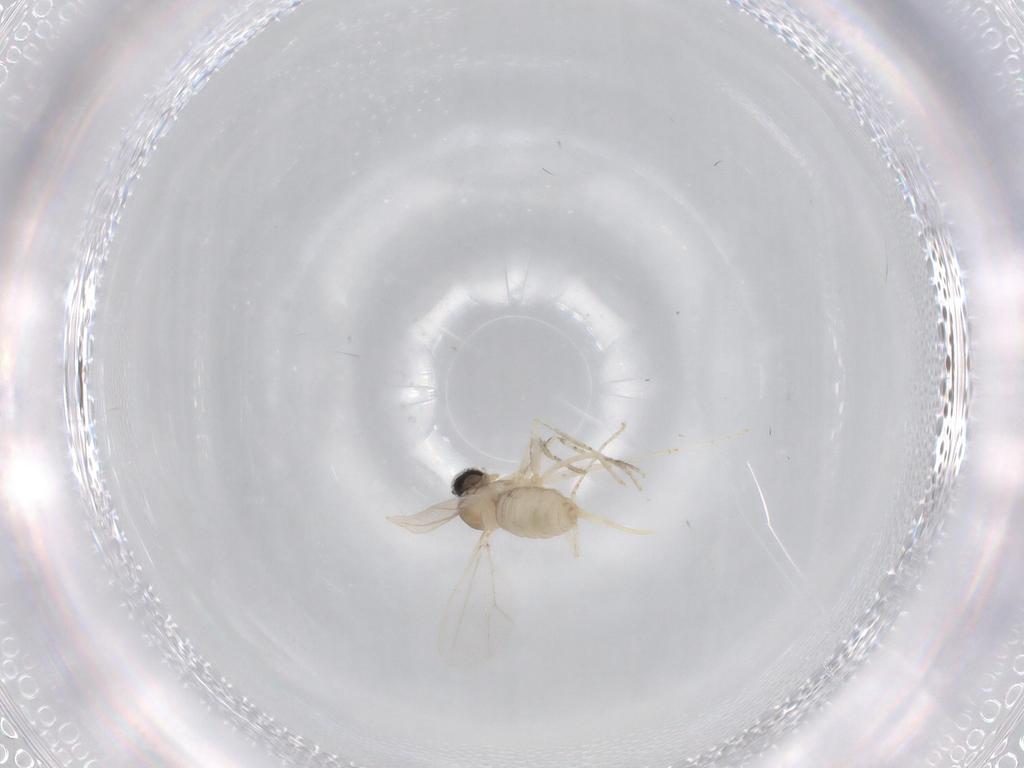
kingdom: Animalia
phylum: Arthropoda
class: Insecta
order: Diptera
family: Cecidomyiidae
